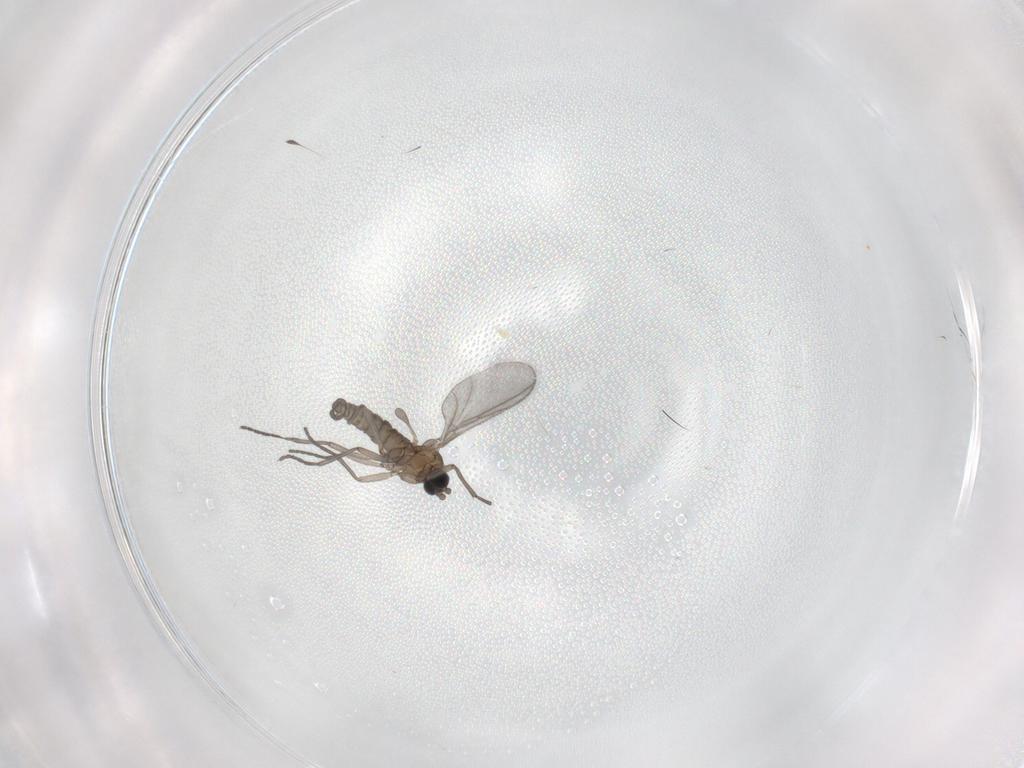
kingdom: Animalia
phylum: Arthropoda
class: Insecta
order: Diptera
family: Sciaridae
